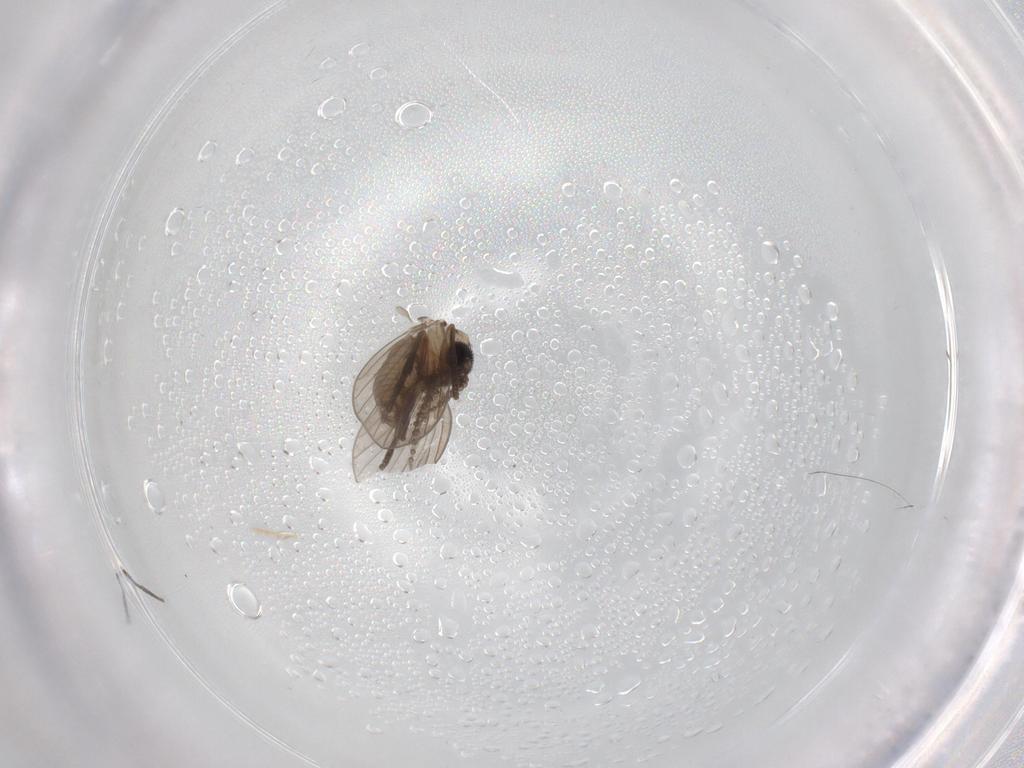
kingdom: Animalia
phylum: Arthropoda
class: Insecta
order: Diptera
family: Psychodidae
